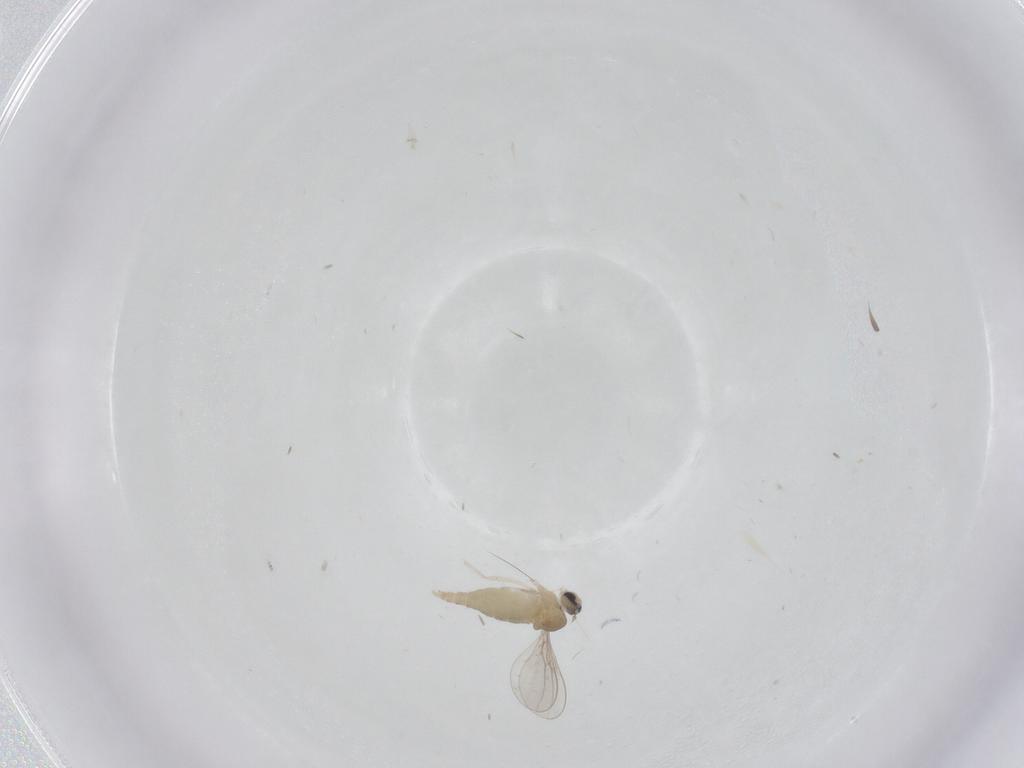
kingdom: Animalia
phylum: Arthropoda
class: Insecta
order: Diptera
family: Cecidomyiidae
